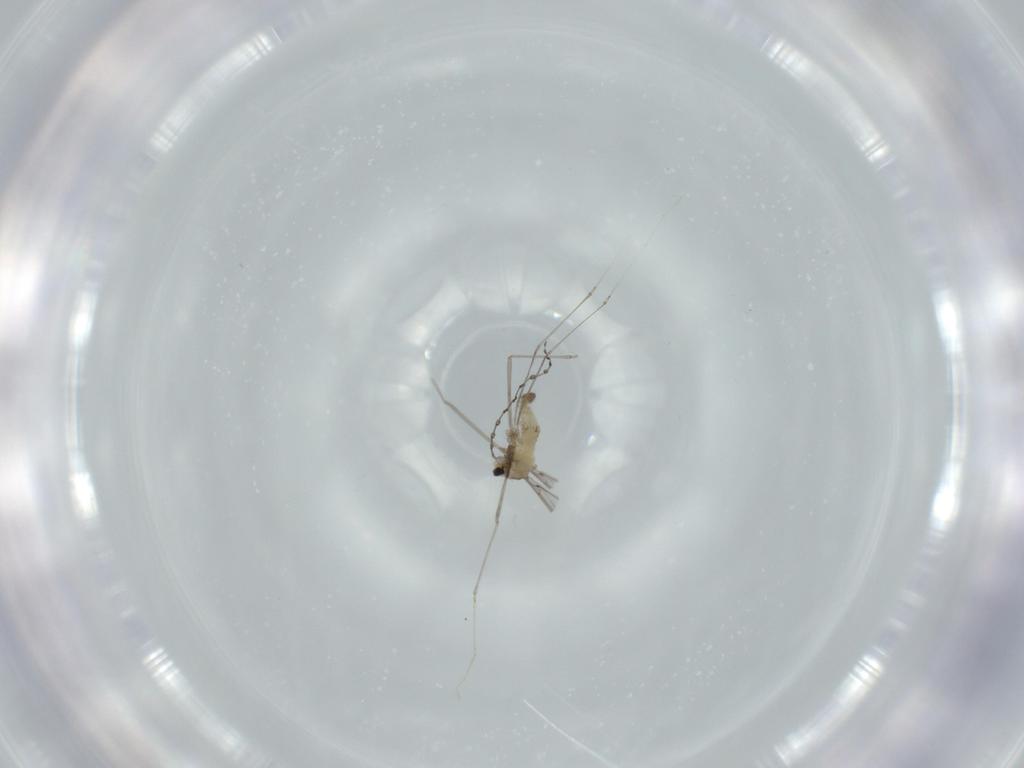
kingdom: Animalia
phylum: Arthropoda
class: Insecta
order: Diptera
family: Cecidomyiidae
